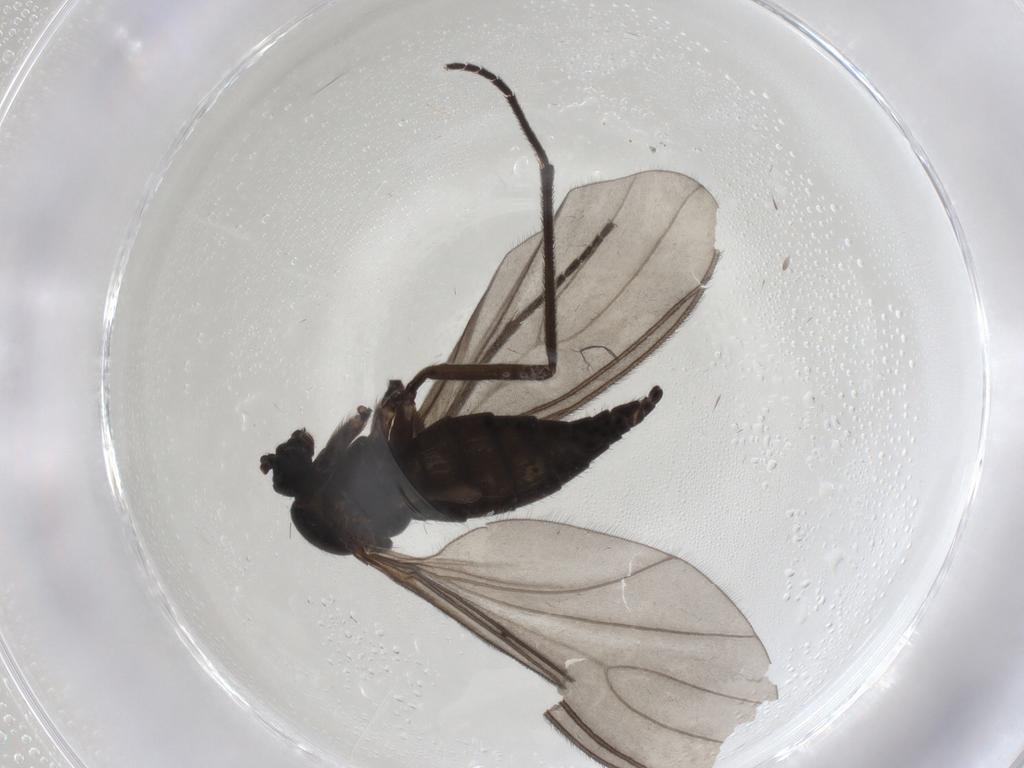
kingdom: Animalia
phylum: Arthropoda
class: Insecta
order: Diptera
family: Sciaridae
